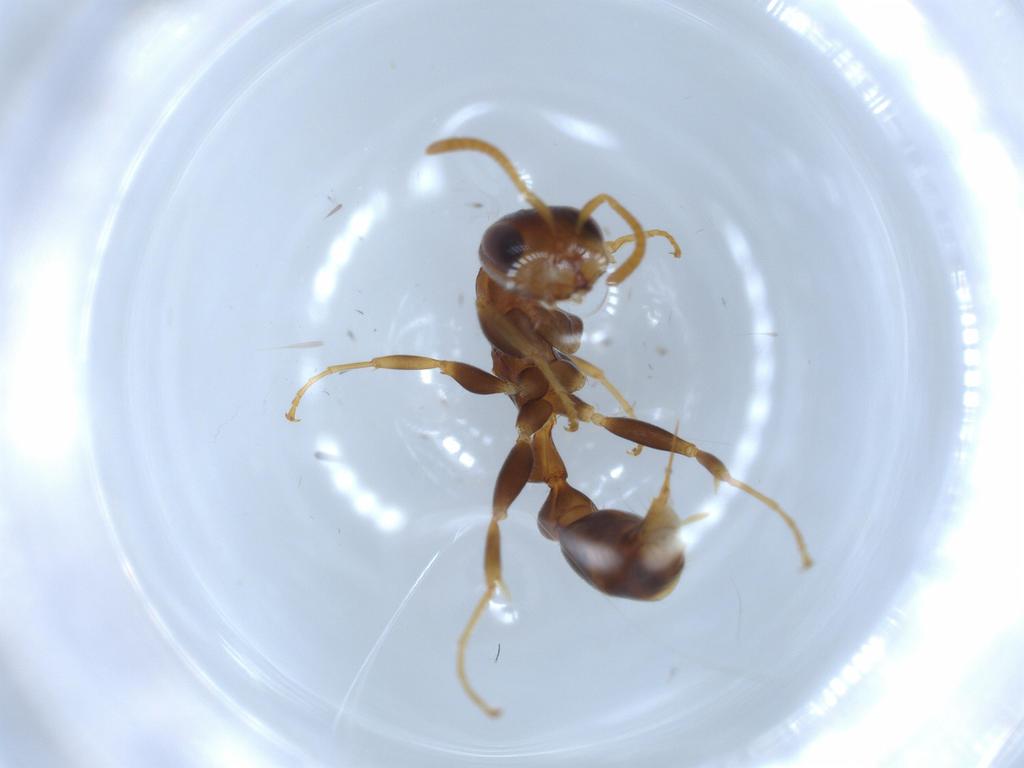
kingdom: Animalia
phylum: Arthropoda
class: Insecta
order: Hymenoptera
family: Formicidae
